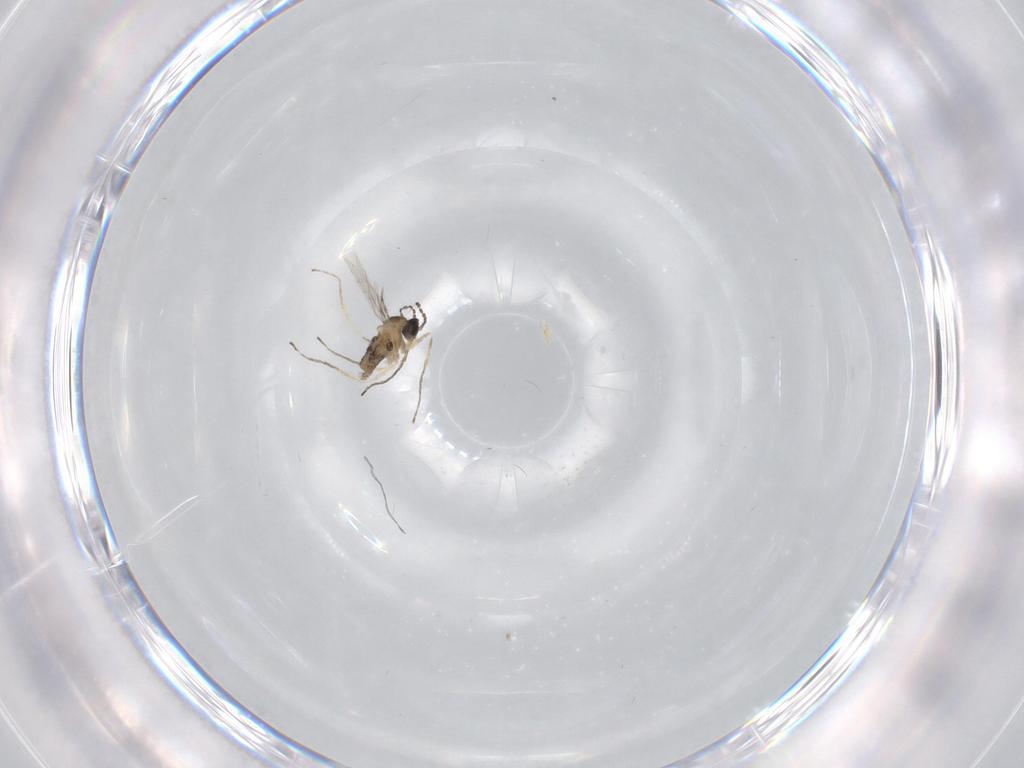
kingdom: Animalia
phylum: Arthropoda
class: Insecta
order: Diptera
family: Cecidomyiidae
